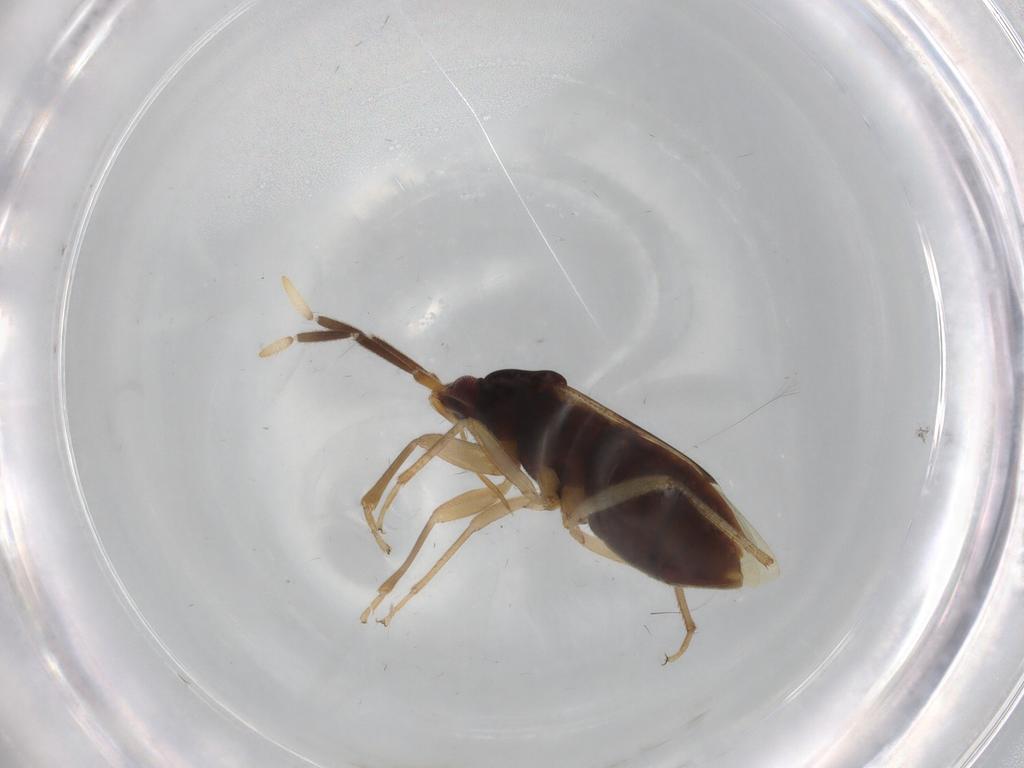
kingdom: Animalia
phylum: Arthropoda
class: Insecta
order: Hemiptera
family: Rhyparochromidae
